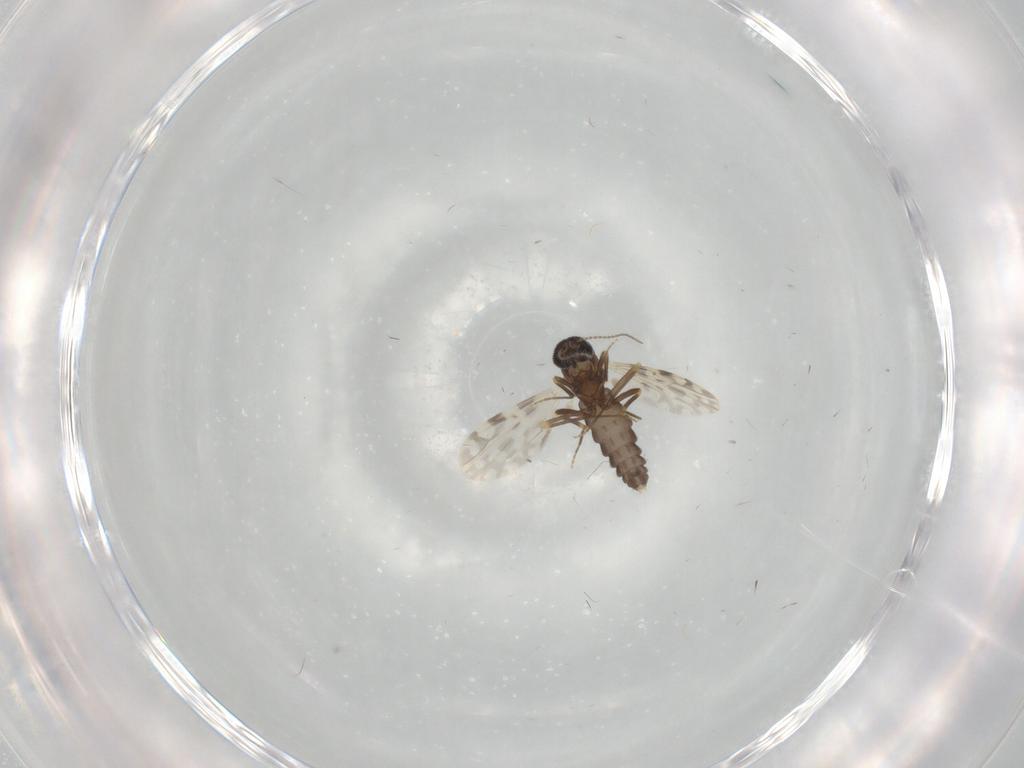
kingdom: Animalia
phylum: Arthropoda
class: Insecta
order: Diptera
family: Ceratopogonidae
